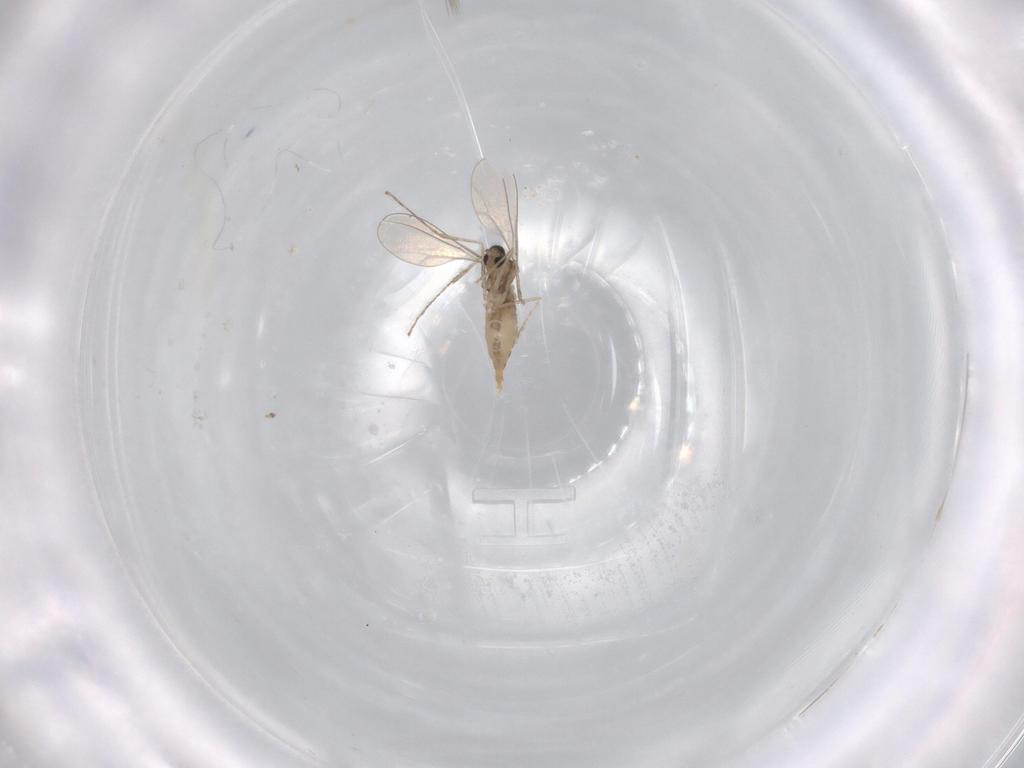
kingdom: Animalia
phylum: Arthropoda
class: Insecta
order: Diptera
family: Cecidomyiidae
